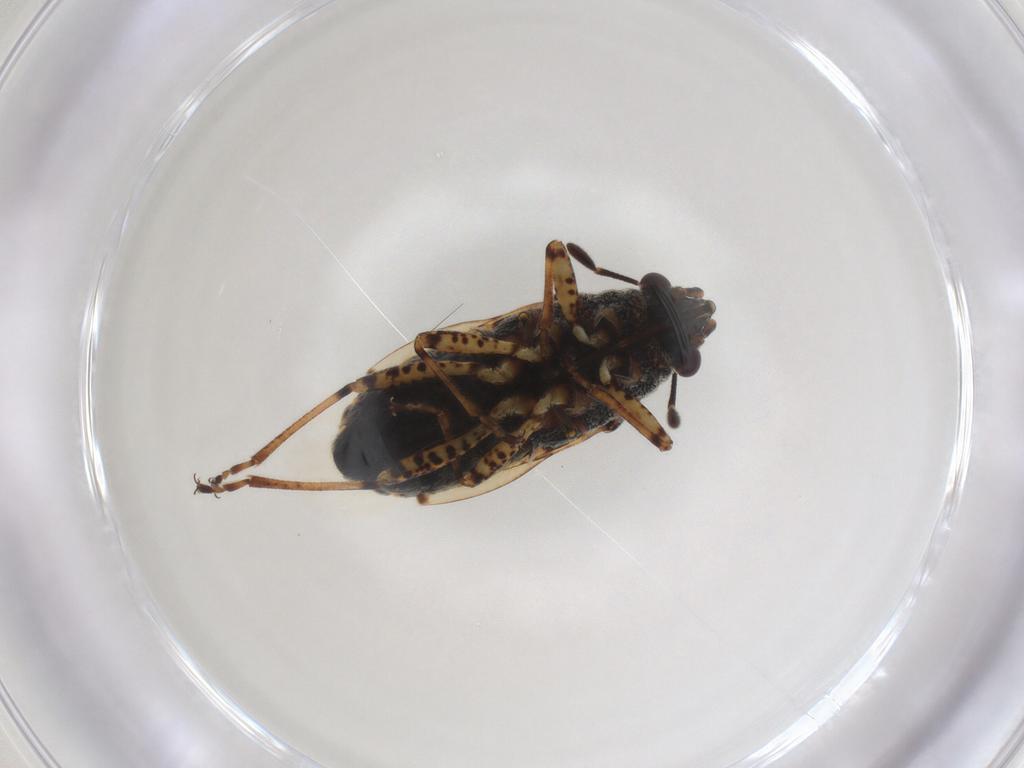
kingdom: Animalia
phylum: Arthropoda
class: Insecta
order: Hemiptera
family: Lygaeidae
